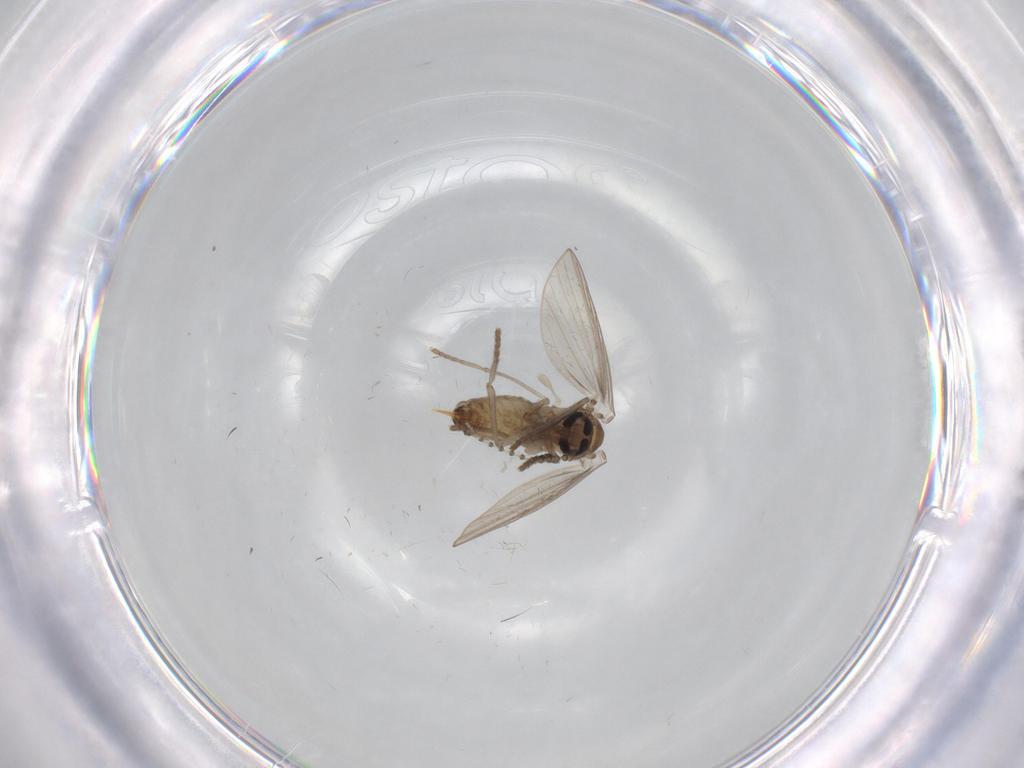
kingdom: Animalia
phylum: Arthropoda
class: Insecta
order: Diptera
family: Psychodidae
